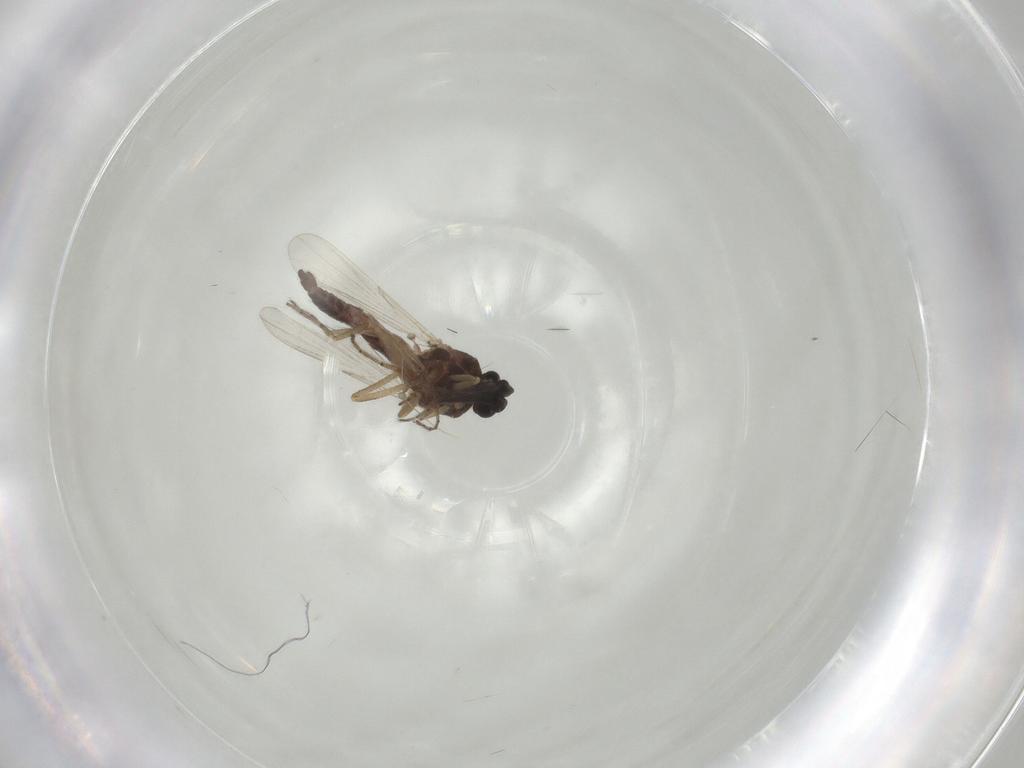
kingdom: Animalia
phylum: Arthropoda
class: Insecta
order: Diptera
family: Ceratopogonidae
